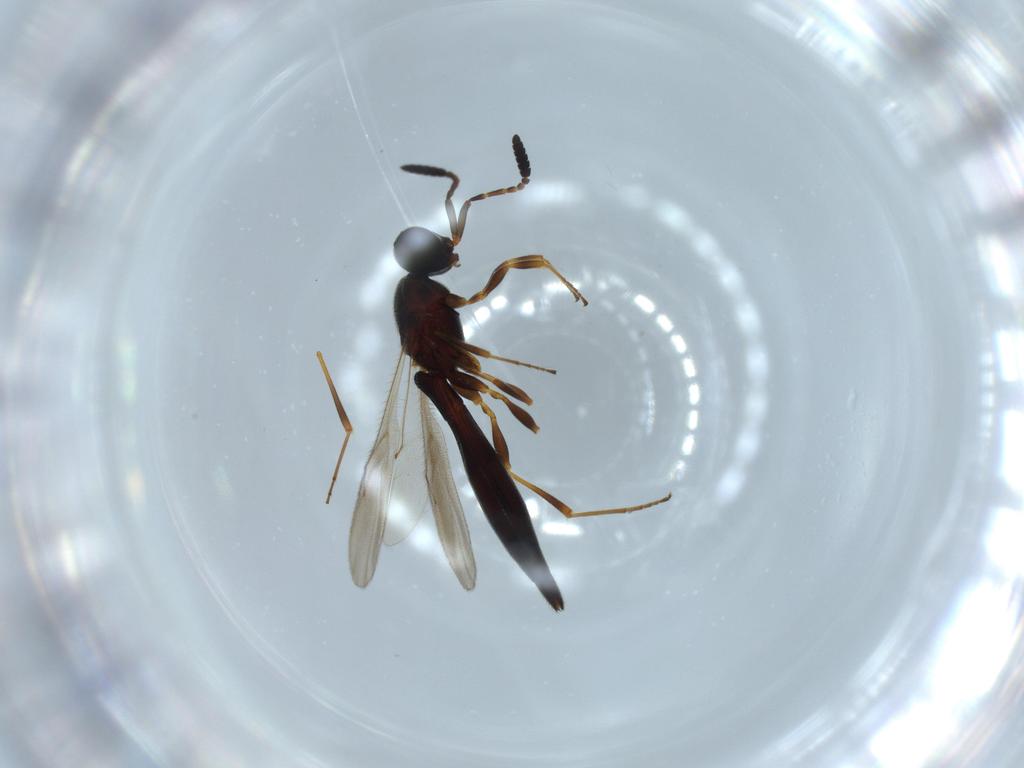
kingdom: Animalia
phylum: Arthropoda
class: Insecta
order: Hymenoptera
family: Scelionidae
